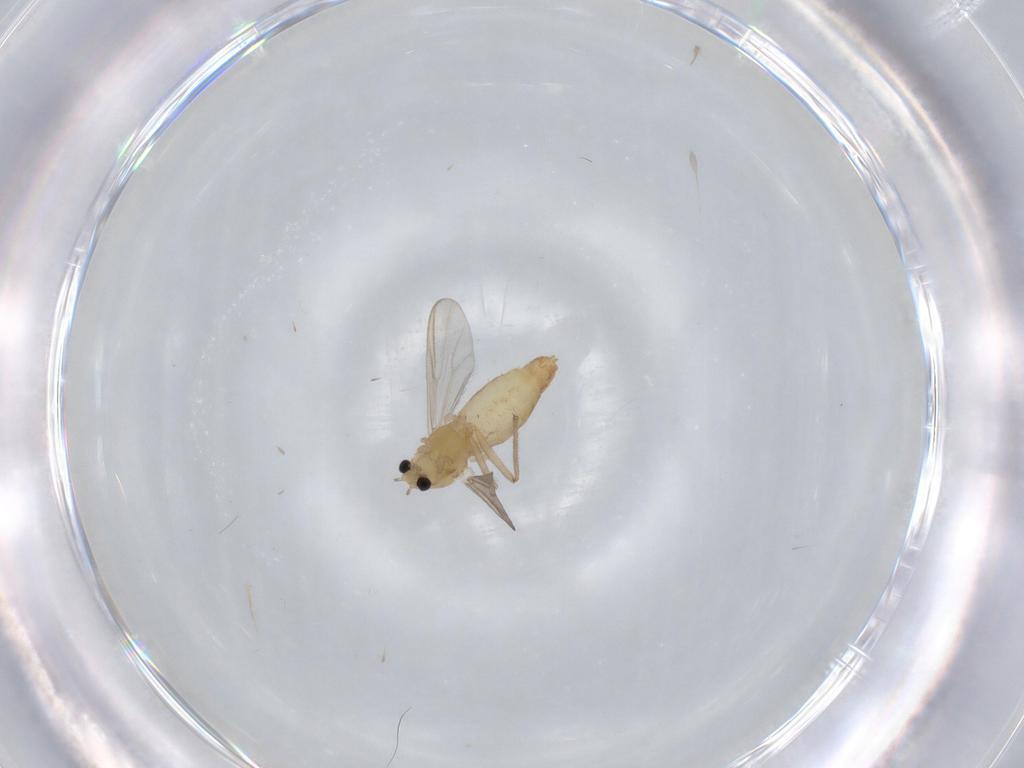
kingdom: Animalia
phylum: Arthropoda
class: Insecta
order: Diptera
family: Chironomidae
